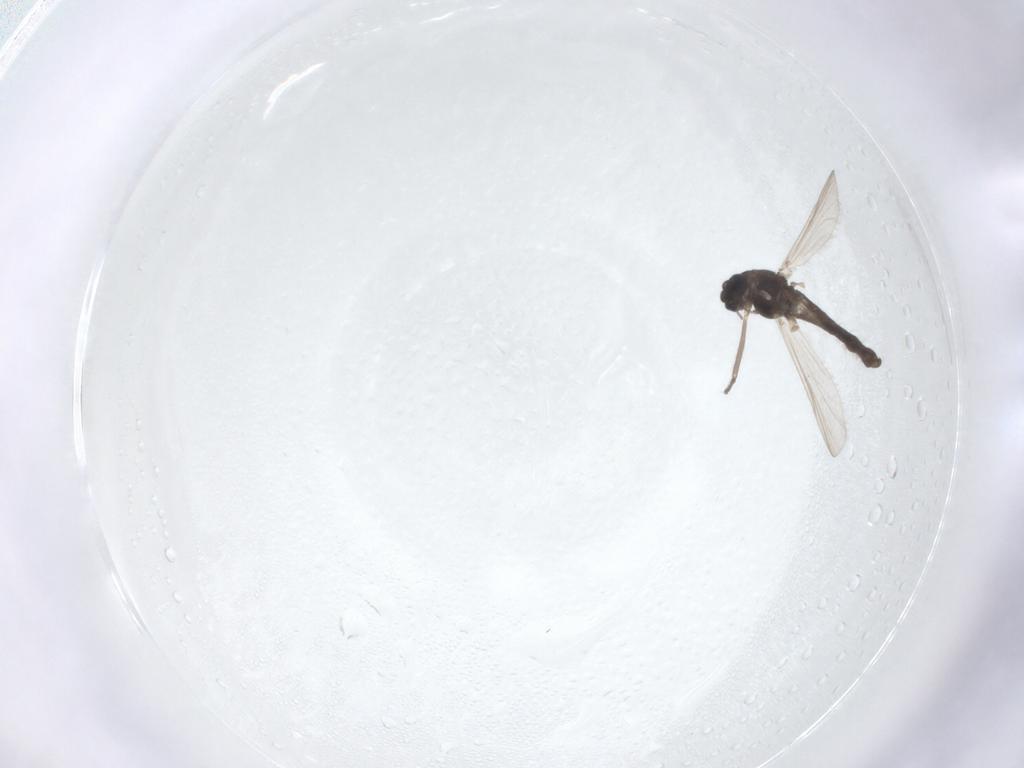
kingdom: Animalia
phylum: Arthropoda
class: Insecta
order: Diptera
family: Chironomidae
